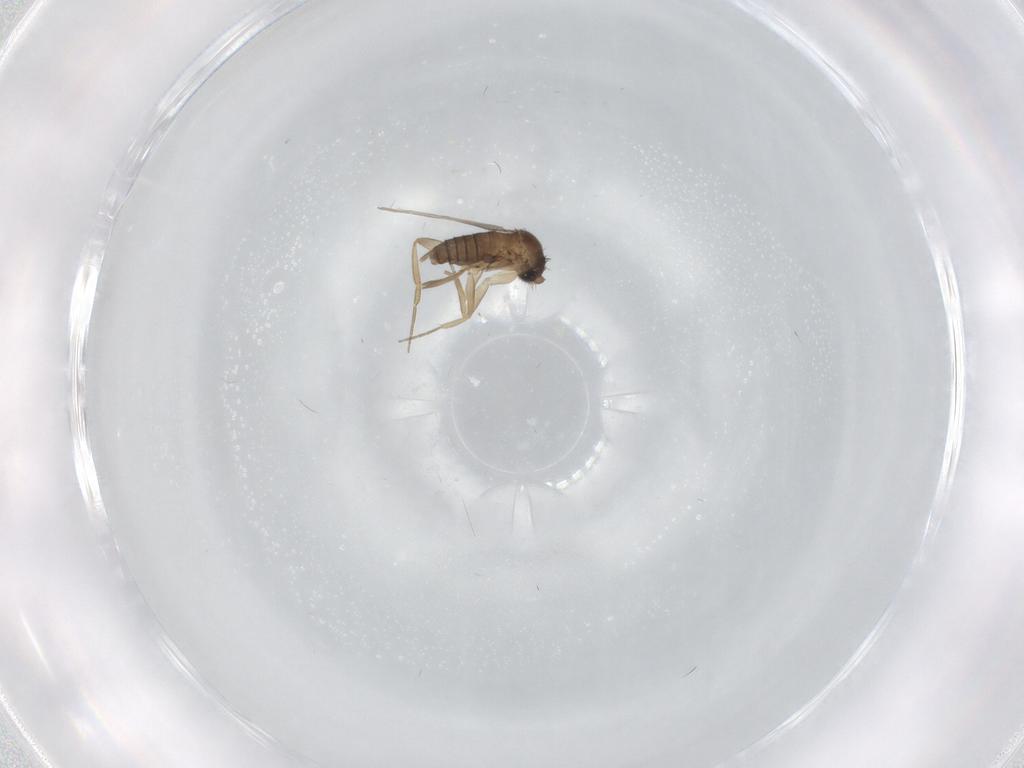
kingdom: Animalia
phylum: Arthropoda
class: Insecta
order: Diptera
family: Phoridae
